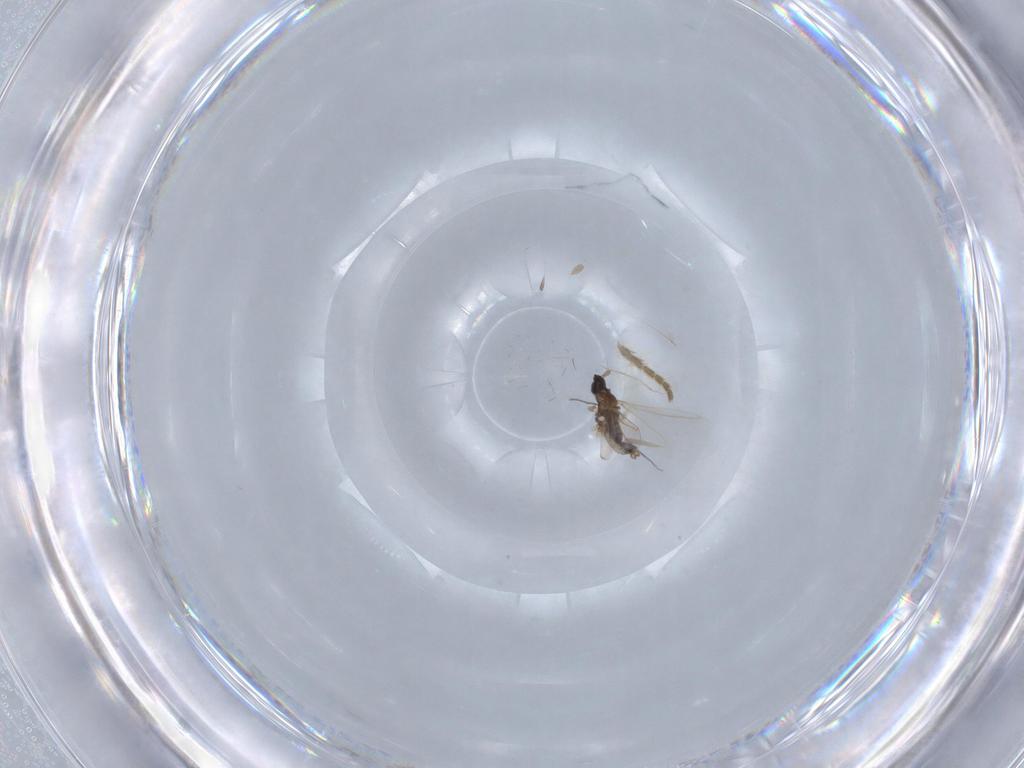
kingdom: Animalia
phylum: Arthropoda
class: Insecta
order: Diptera
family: Cecidomyiidae
